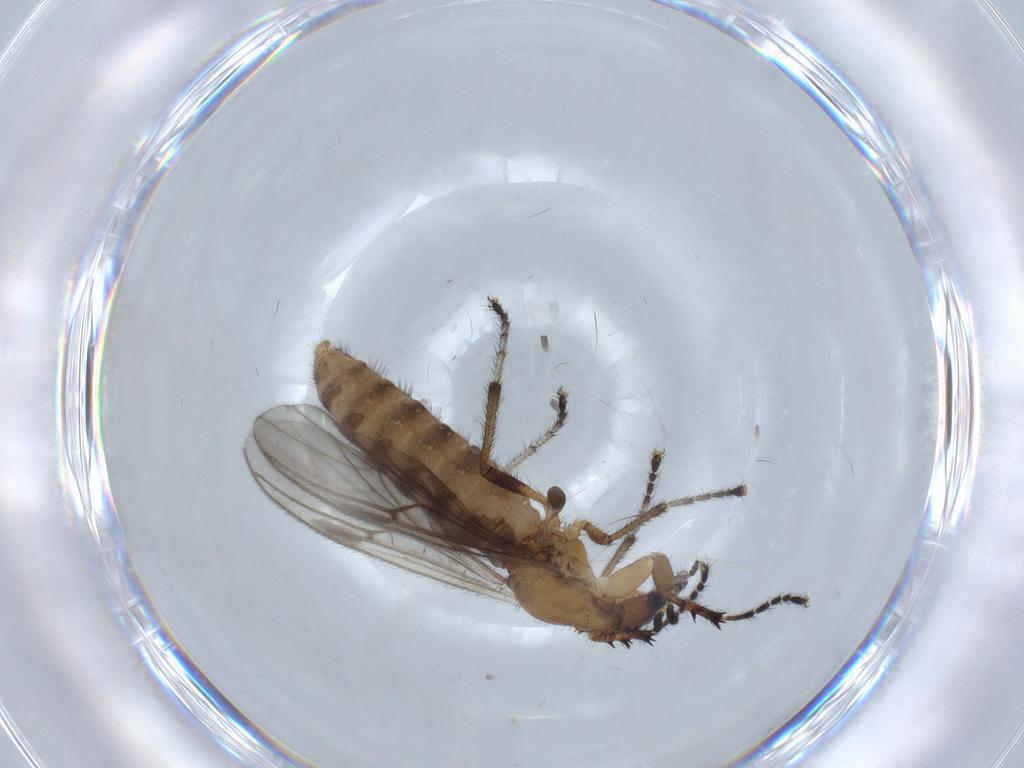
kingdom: Animalia
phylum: Arthropoda
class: Insecta
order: Diptera
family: Bibionidae
